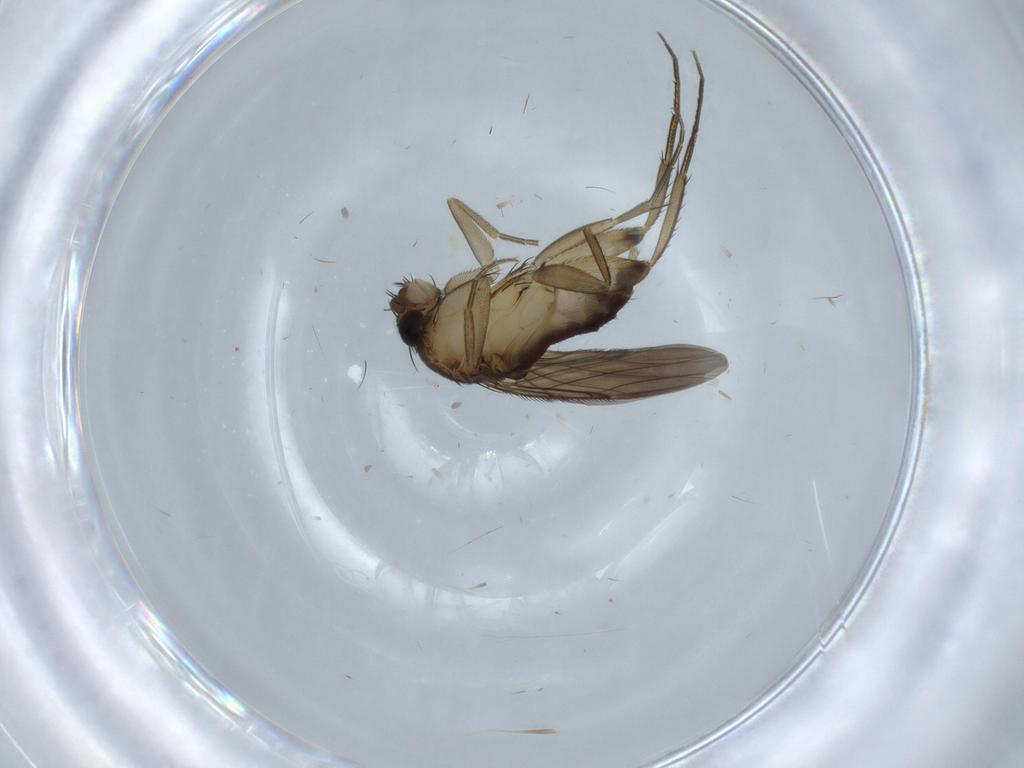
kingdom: Animalia
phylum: Arthropoda
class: Insecta
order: Diptera
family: Phoridae
